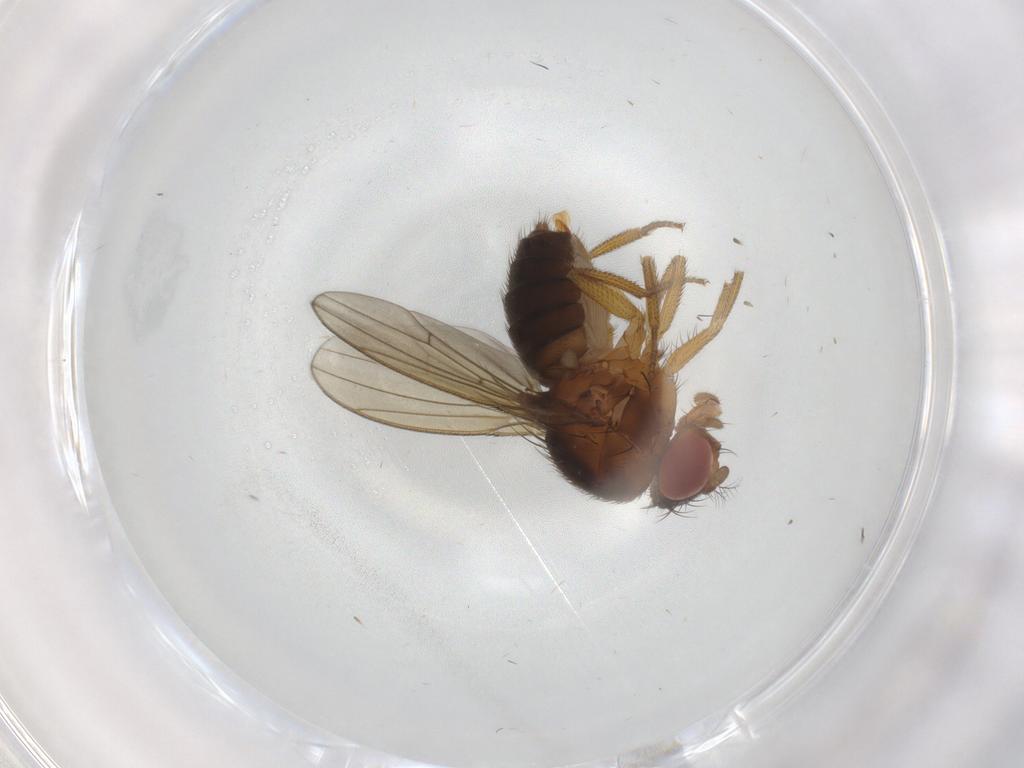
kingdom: Animalia
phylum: Arthropoda
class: Insecta
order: Diptera
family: Drosophilidae
